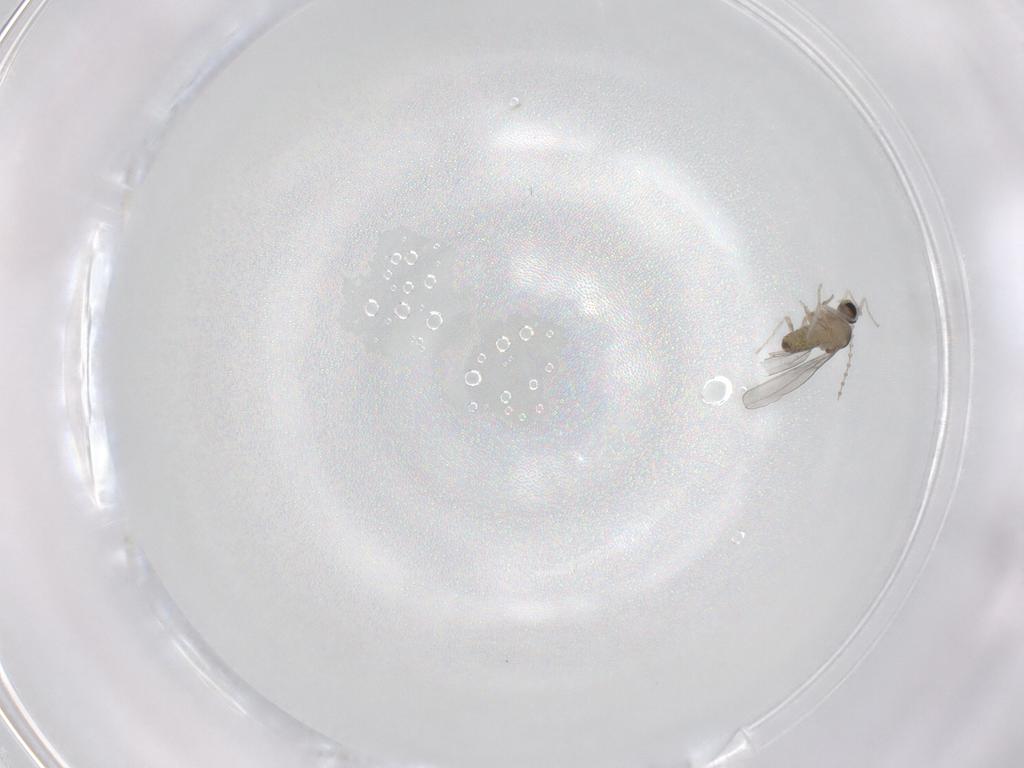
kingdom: Animalia
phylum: Arthropoda
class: Insecta
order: Diptera
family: Cecidomyiidae
